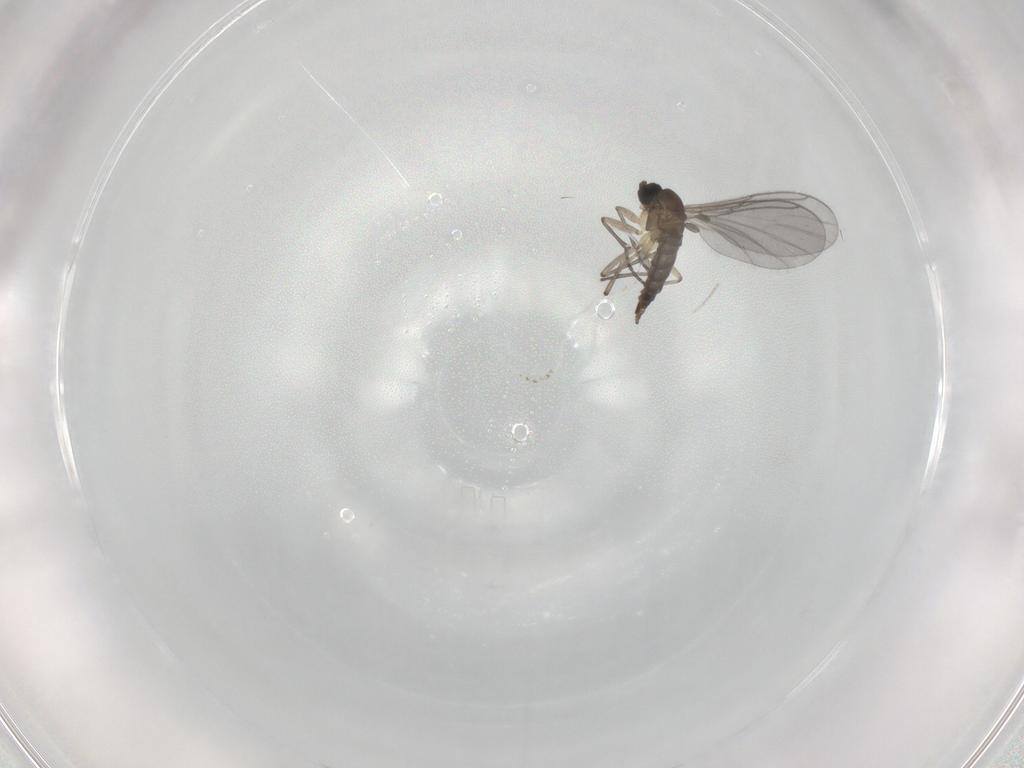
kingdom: Animalia
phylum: Arthropoda
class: Insecta
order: Diptera
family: Sciaridae
